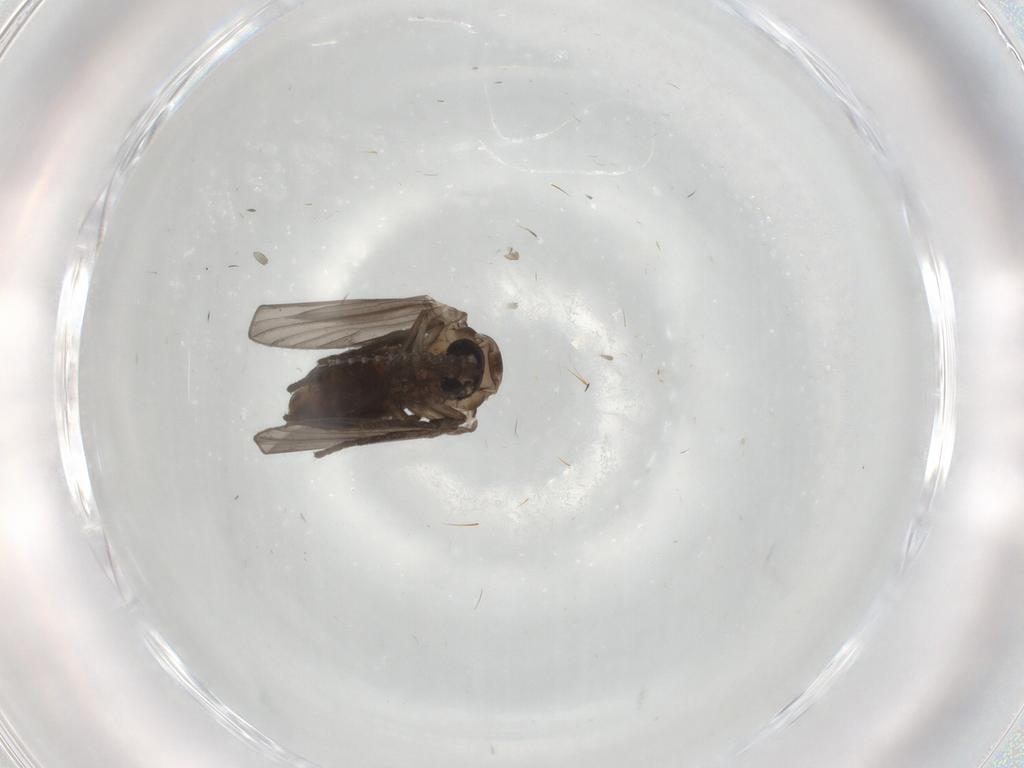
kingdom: Animalia
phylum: Arthropoda
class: Insecta
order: Diptera
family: Psychodidae
